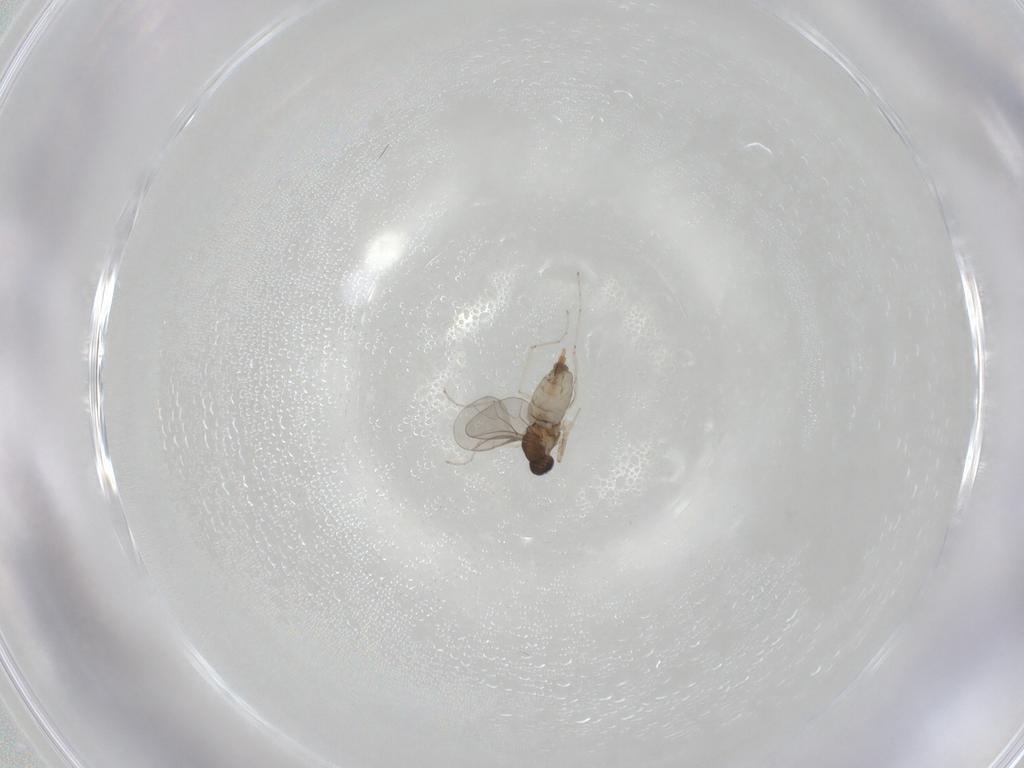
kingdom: Animalia
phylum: Arthropoda
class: Insecta
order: Diptera
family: Cecidomyiidae
